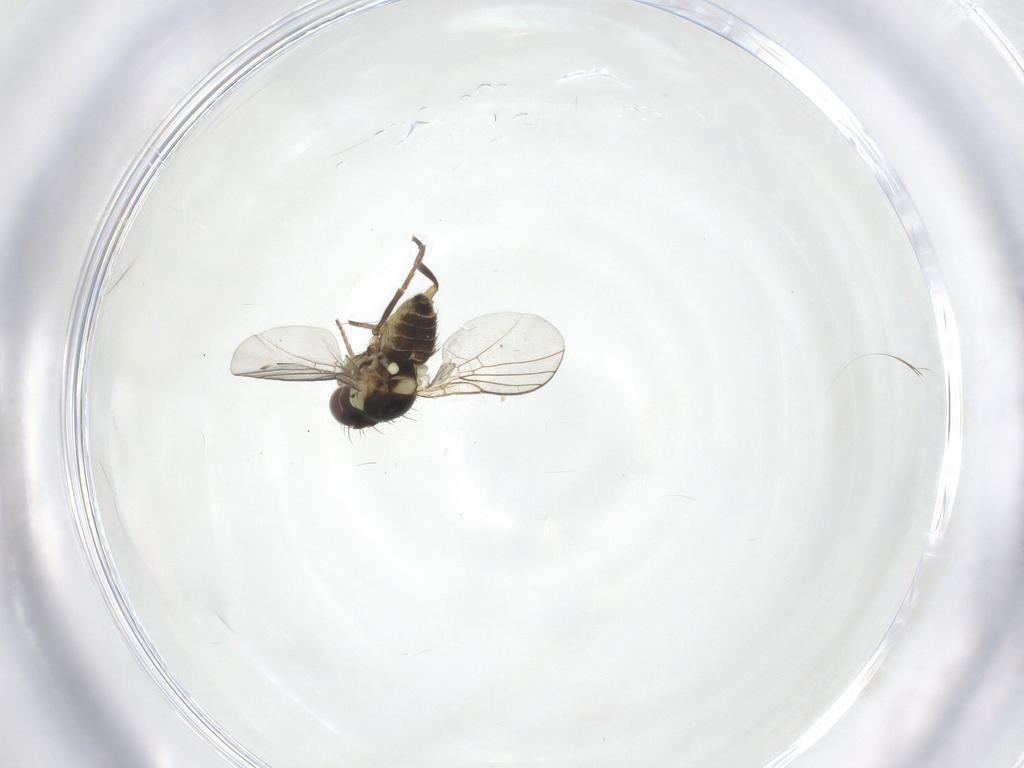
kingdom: Animalia
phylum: Arthropoda
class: Insecta
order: Diptera
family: Agromyzidae
